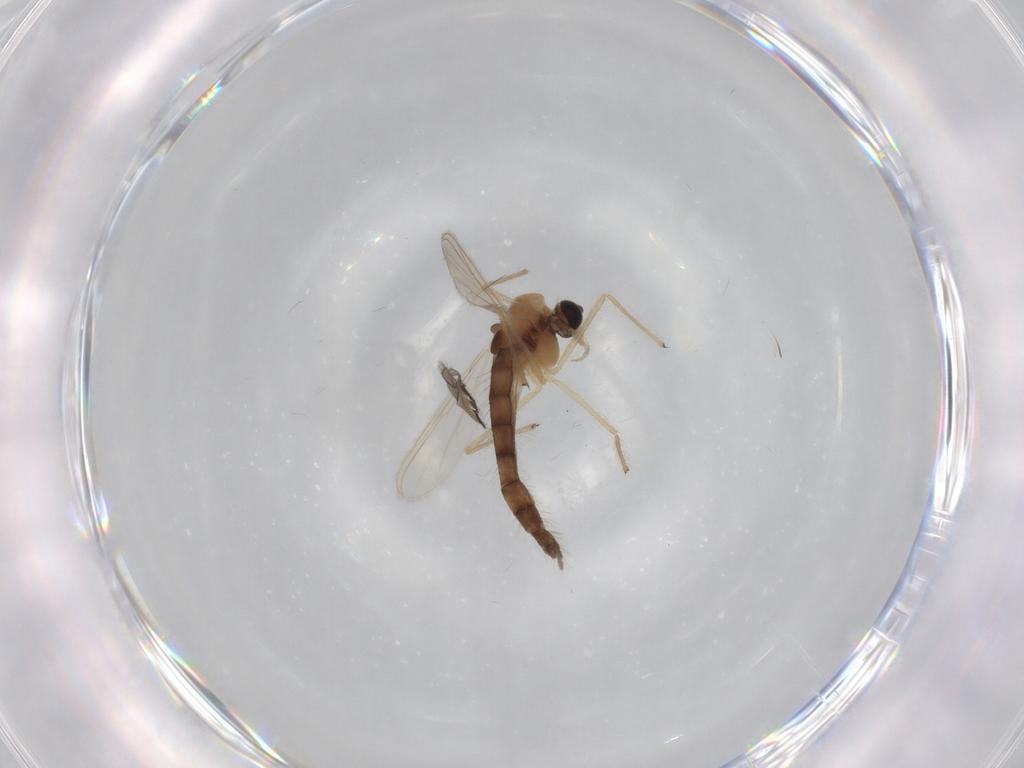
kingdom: Animalia
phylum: Arthropoda
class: Insecta
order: Diptera
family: Chironomidae
